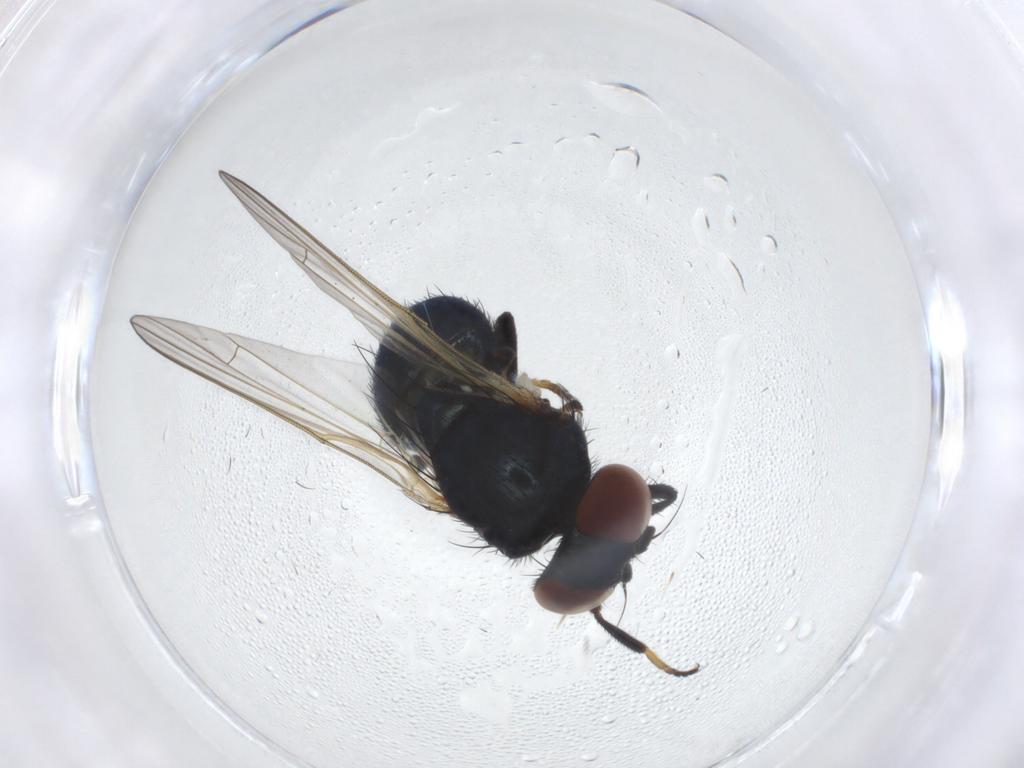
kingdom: Animalia
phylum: Arthropoda
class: Insecta
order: Diptera
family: Lonchaeidae
